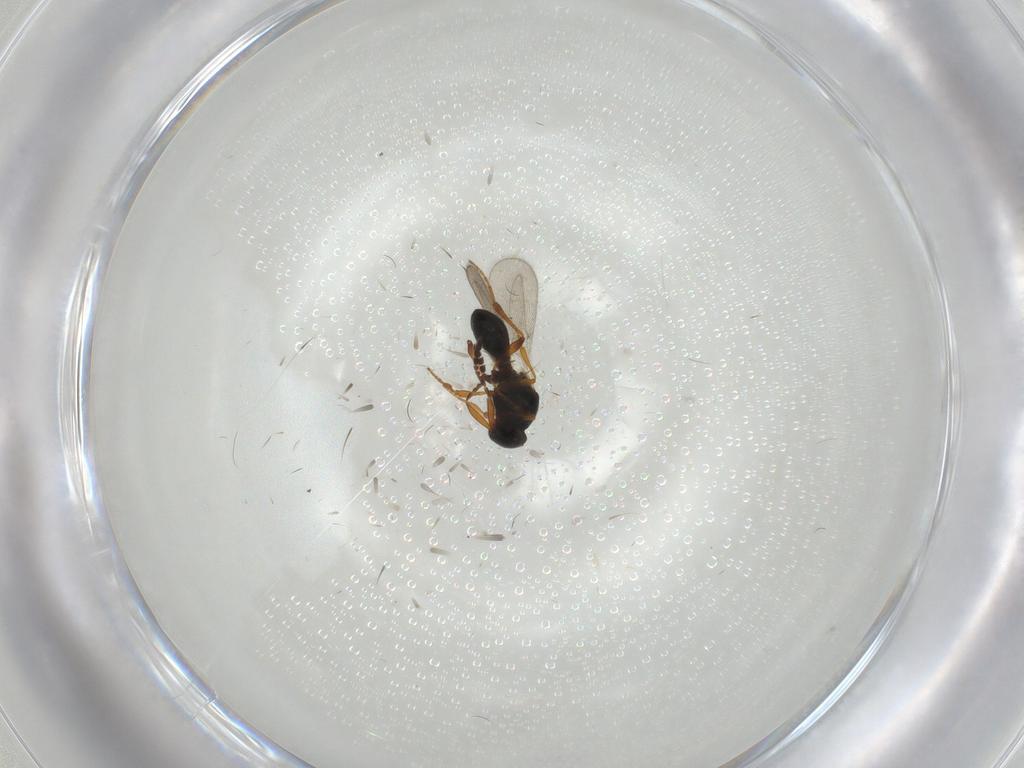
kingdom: Animalia
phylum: Arthropoda
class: Insecta
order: Hymenoptera
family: Platygastridae
